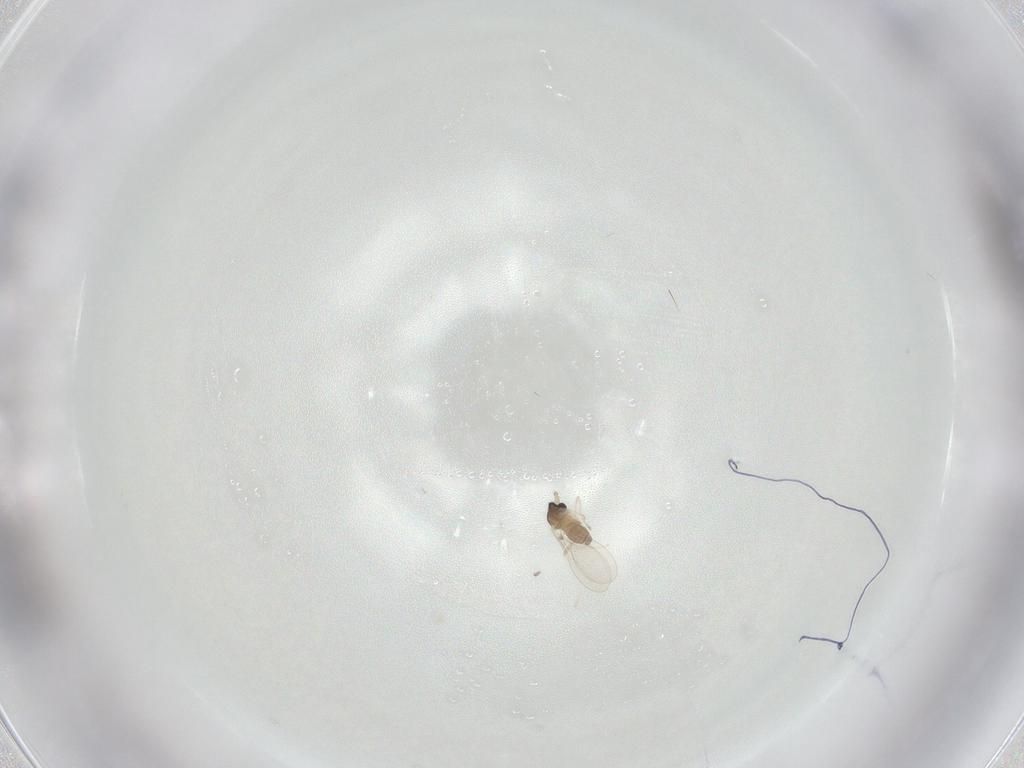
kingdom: Animalia
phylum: Arthropoda
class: Insecta
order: Diptera
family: Cecidomyiidae
